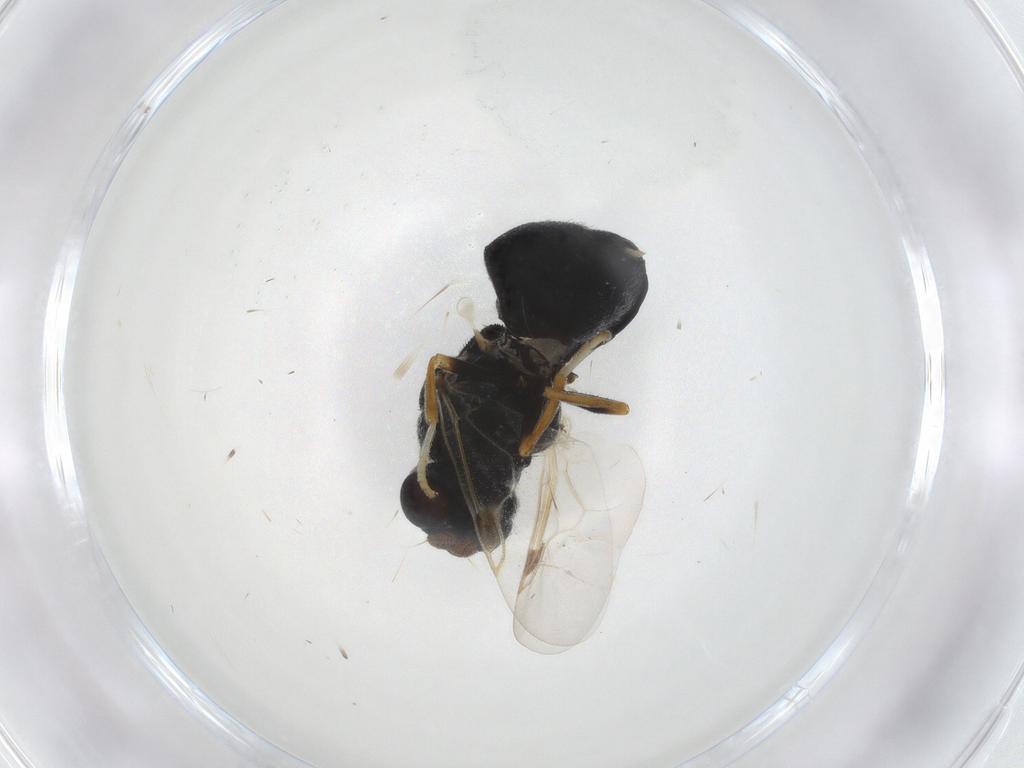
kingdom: Animalia
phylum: Arthropoda
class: Insecta
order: Diptera
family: Stratiomyidae
